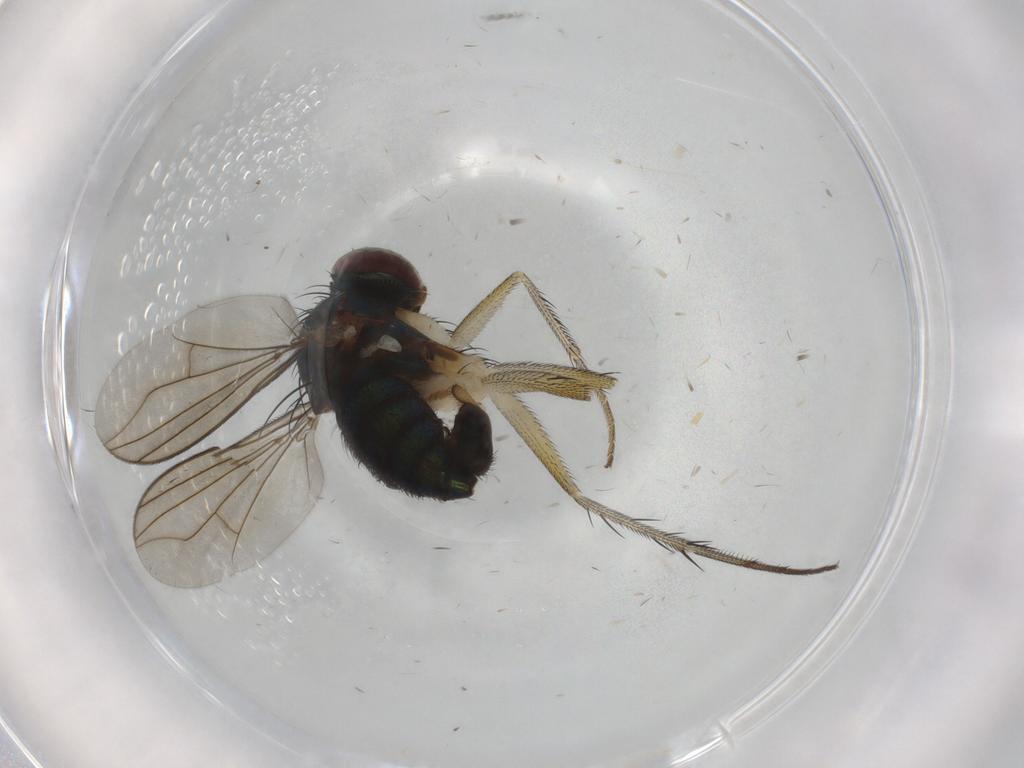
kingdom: Animalia
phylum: Arthropoda
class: Insecta
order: Diptera
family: Dolichopodidae
